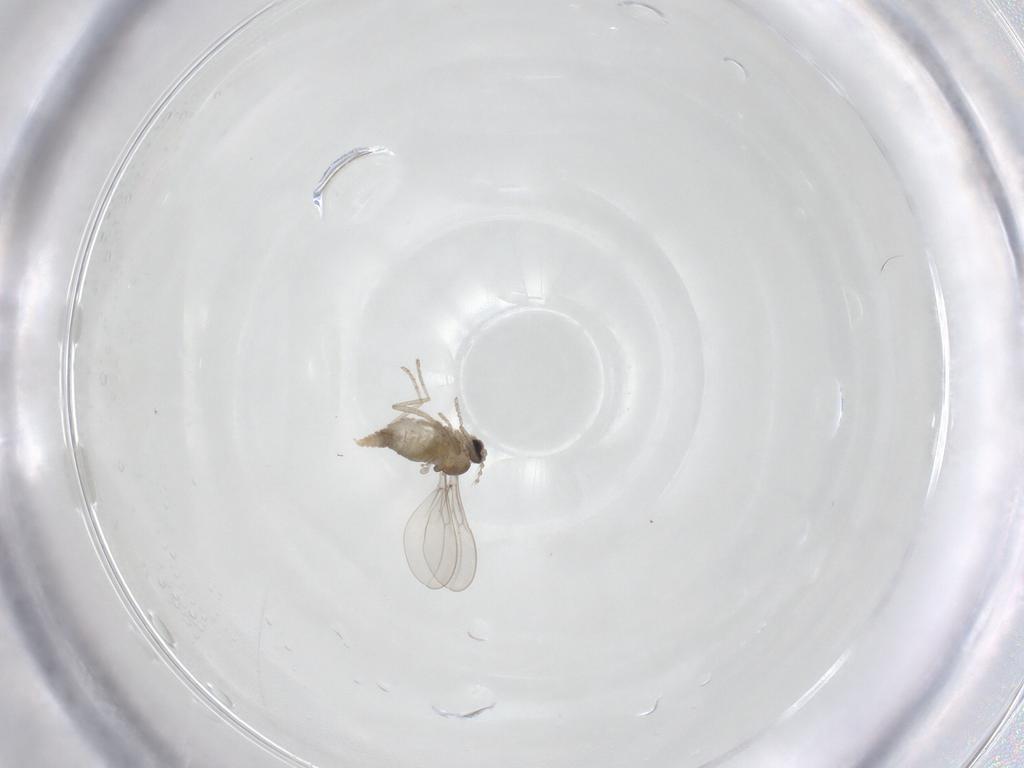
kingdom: Animalia
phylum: Arthropoda
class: Insecta
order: Diptera
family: Cecidomyiidae
